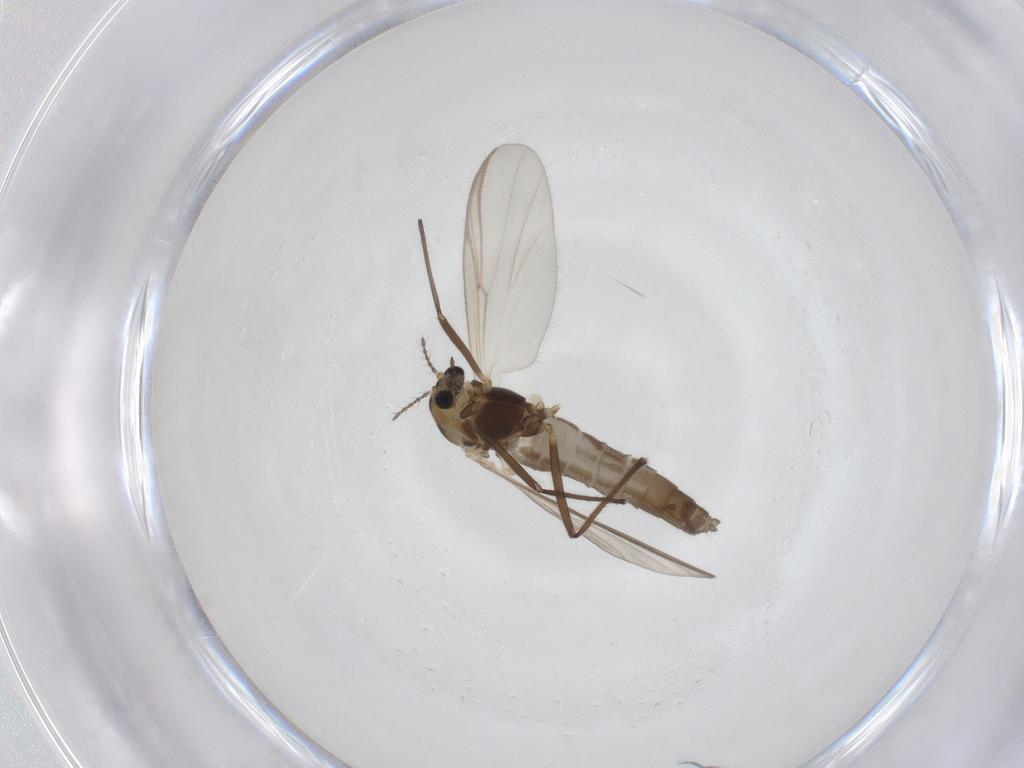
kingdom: Animalia
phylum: Arthropoda
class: Insecta
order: Diptera
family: Chironomidae
